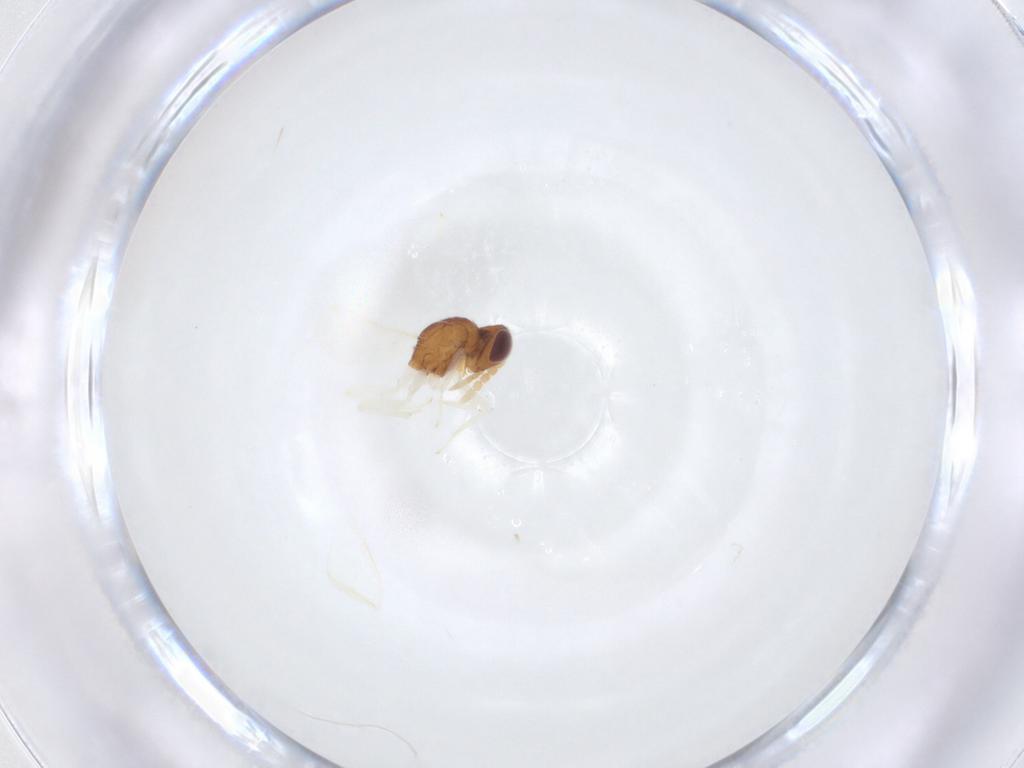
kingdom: Animalia
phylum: Arthropoda
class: Insecta
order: Hymenoptera
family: Eulophidae
